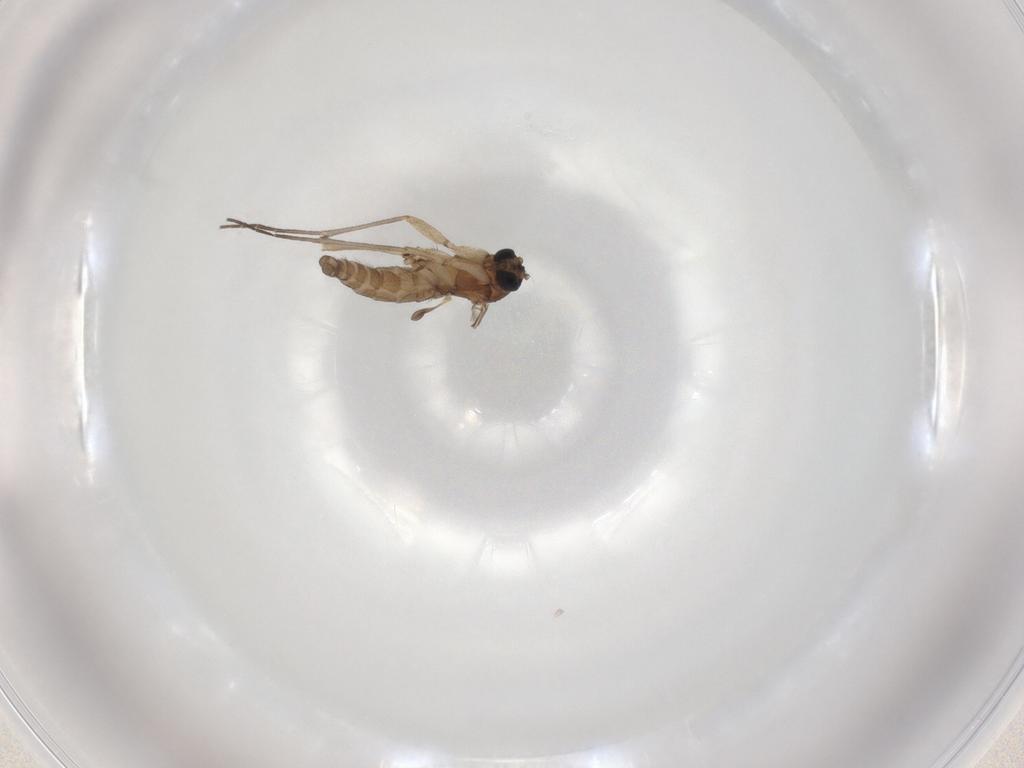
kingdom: Animalia
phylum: Arthropoda
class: Insecta
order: Diptera
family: Sciaridae
